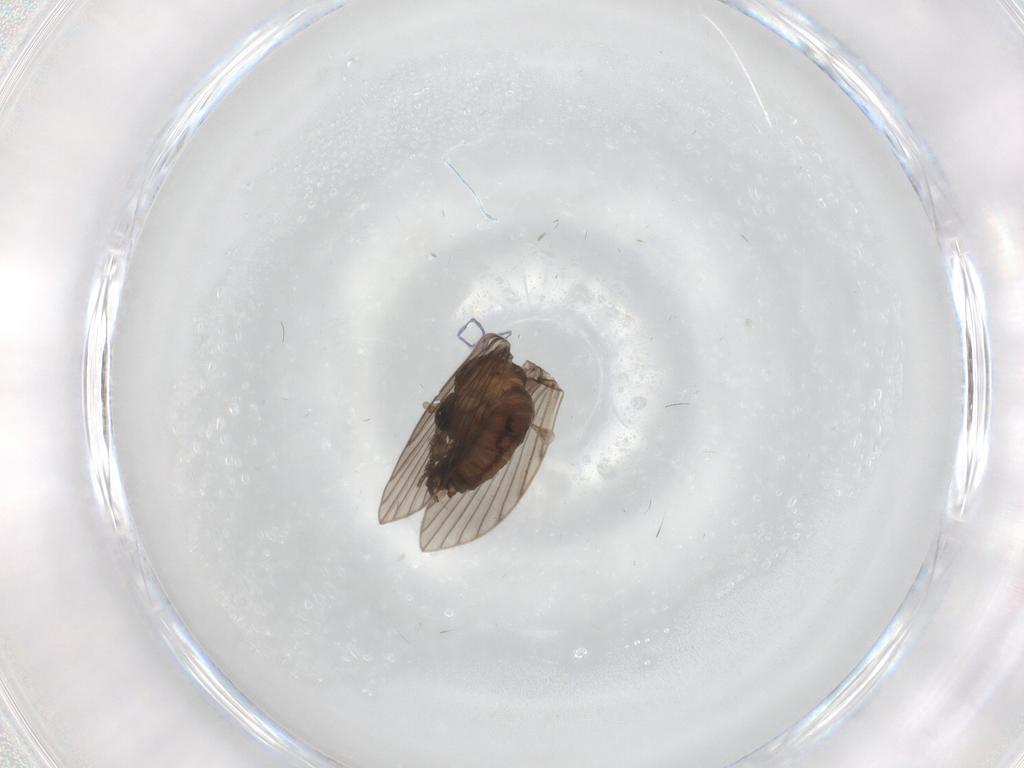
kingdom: Animalia
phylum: Arthropoda
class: Insecta
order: Diptera
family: Psychodidae
